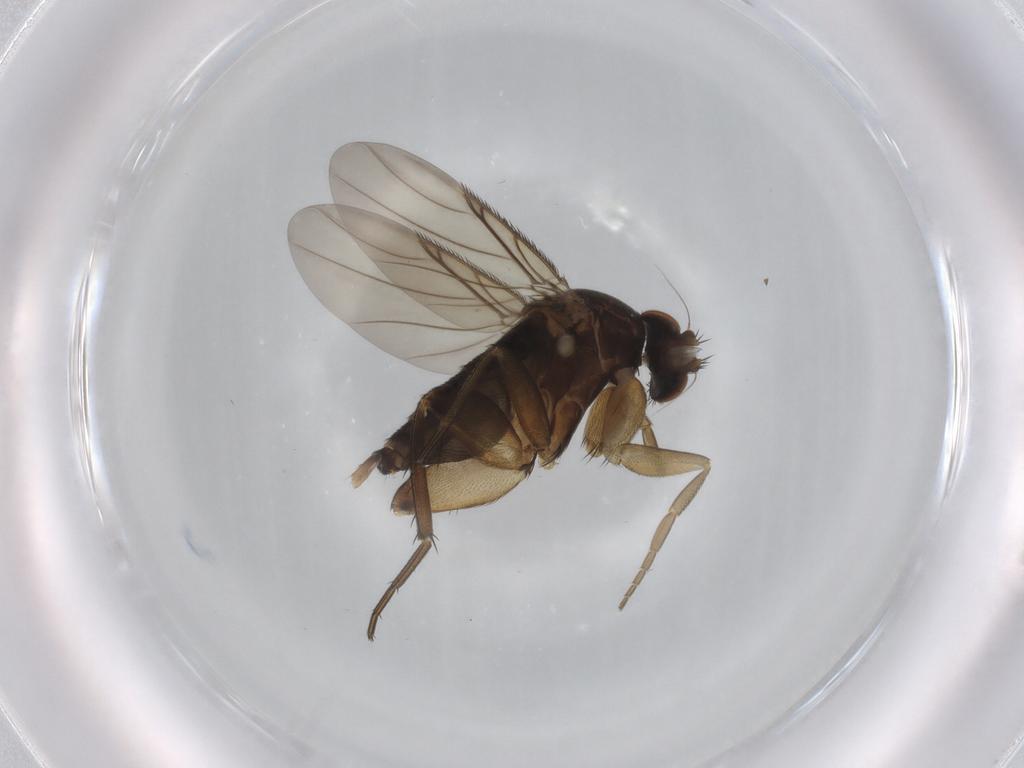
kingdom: Animalia
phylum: Arthropoda
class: Insecta
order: Diptera
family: Phoridae
